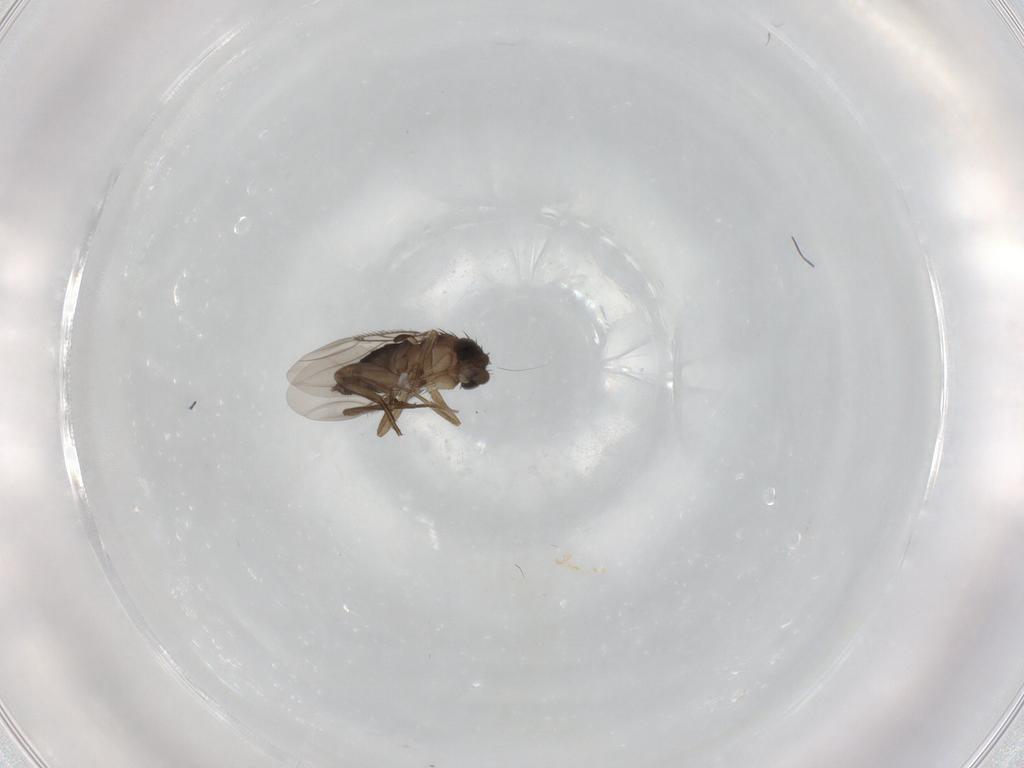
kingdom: Animalia
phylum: Arthropoda
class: Insecta
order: Diptera
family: Phoridae
